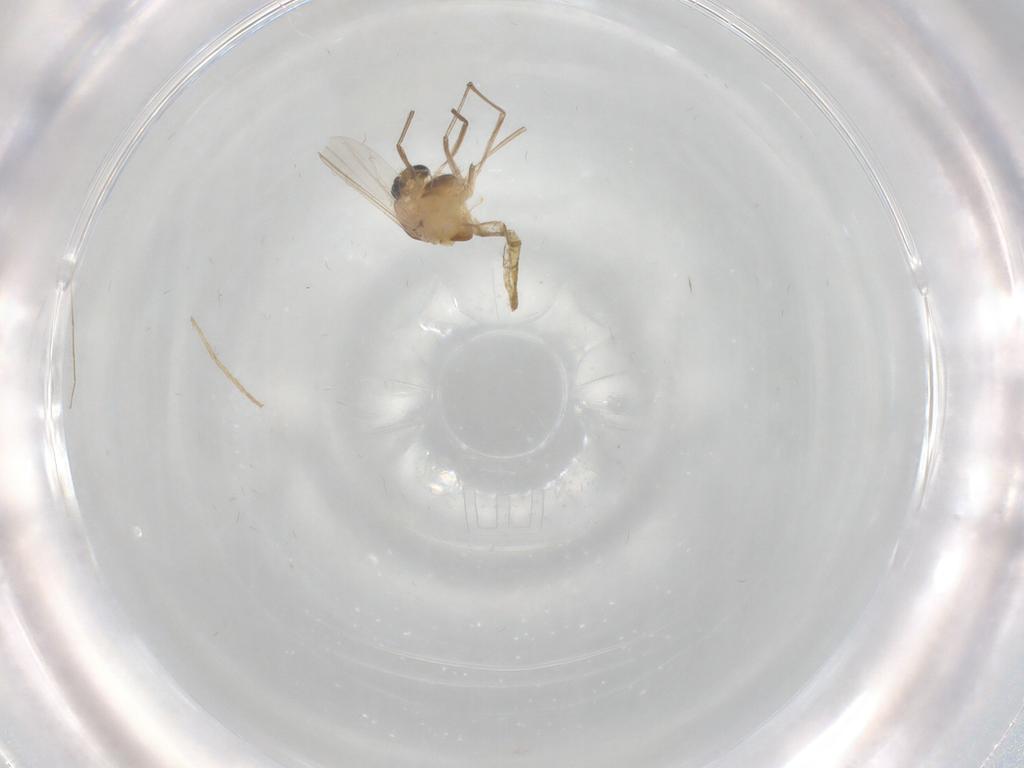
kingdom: Animalia
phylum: Arthropoda
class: Insecta
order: Diptera
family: Chironomidae
